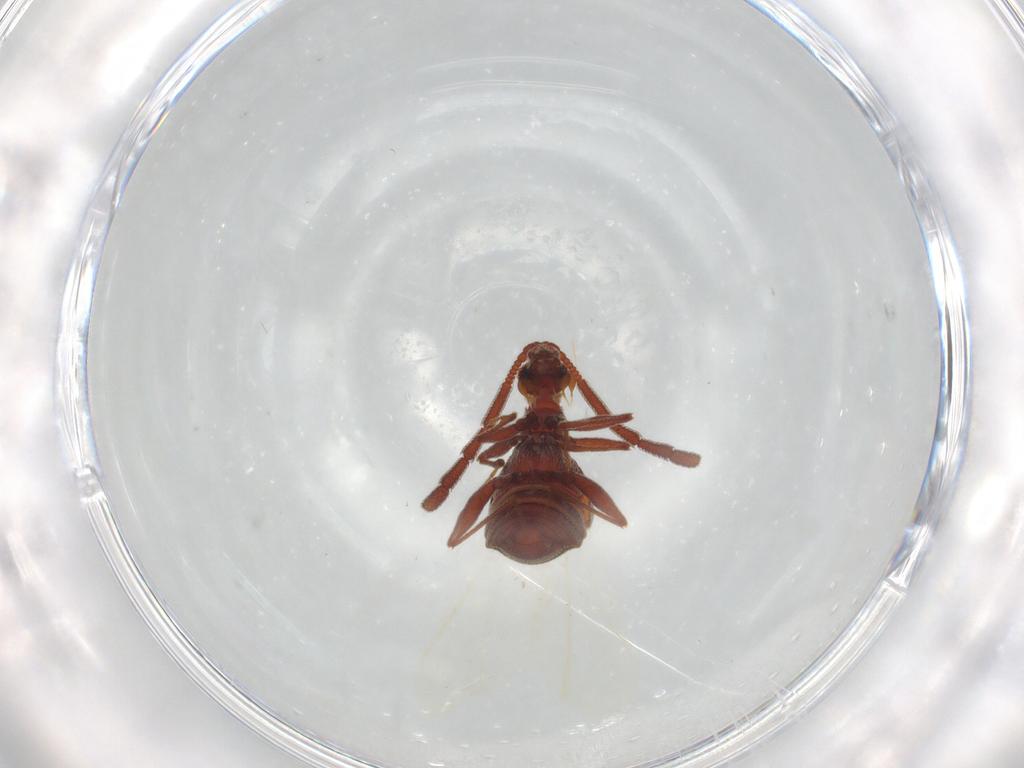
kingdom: Animalia
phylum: Arthropoda
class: Insecta
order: Coleoptera
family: Staphylinidae
